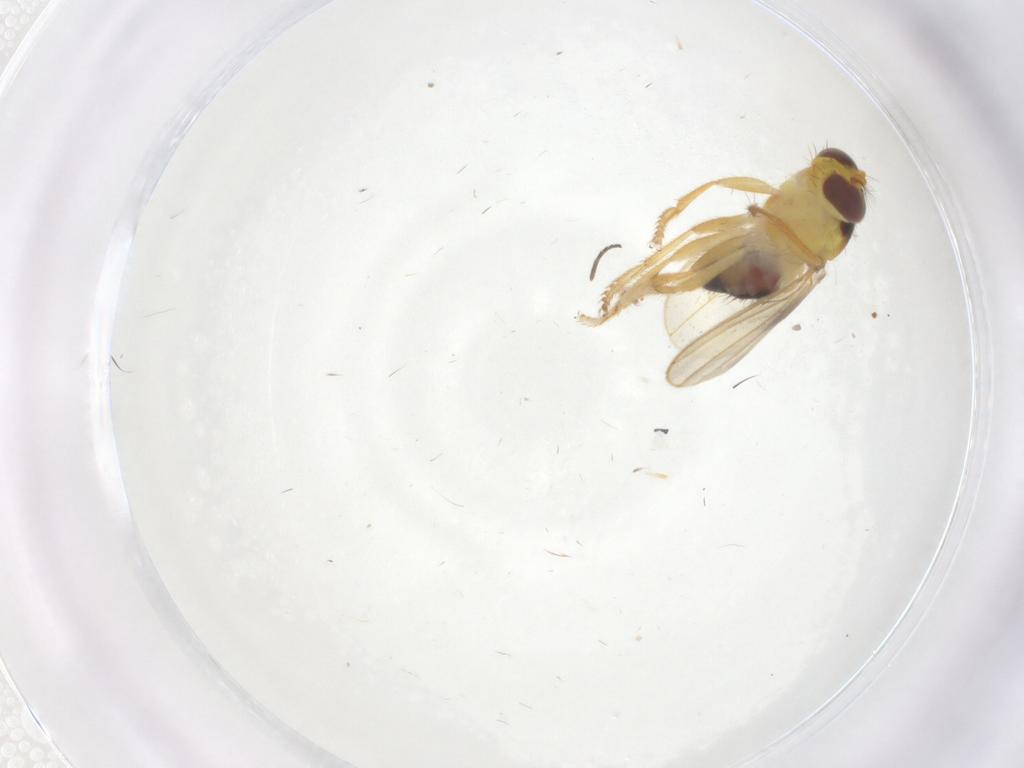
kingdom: Animalia
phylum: Arthropoda
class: Insecta
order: Diptera
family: Periscelididae
